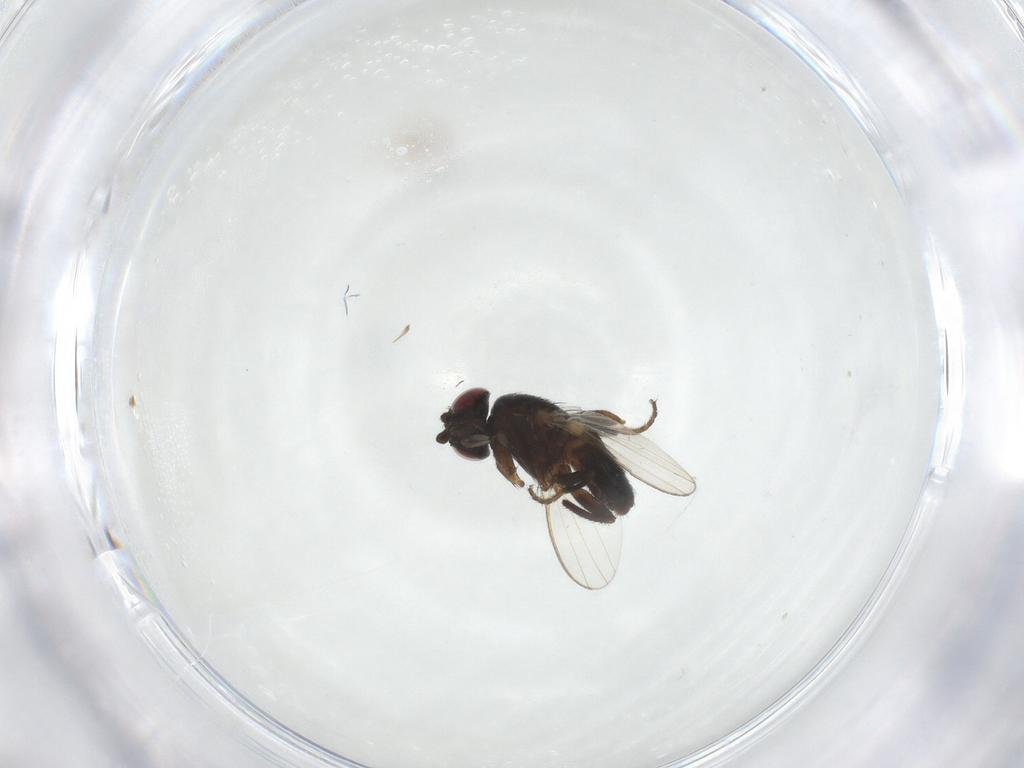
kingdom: Animalia
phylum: Arthropoda
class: Insecta
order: Diptera
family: Milichiidae
